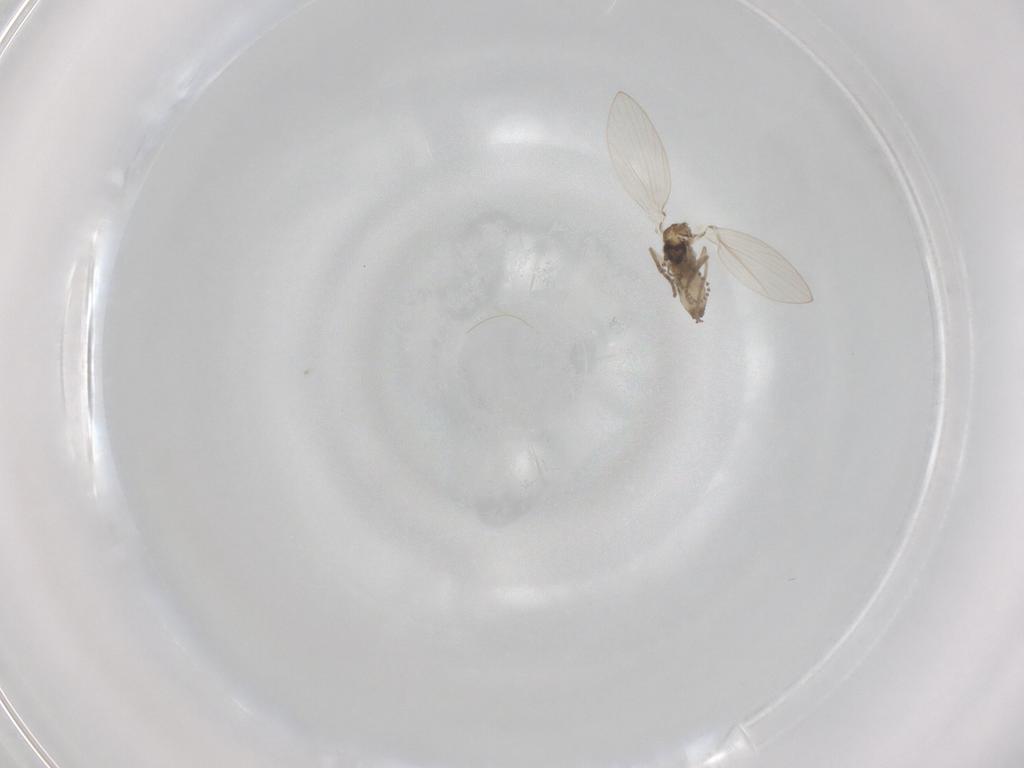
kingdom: Animalia
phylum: Arthropoda
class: Insecta
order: Diptera
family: Psychodidae
